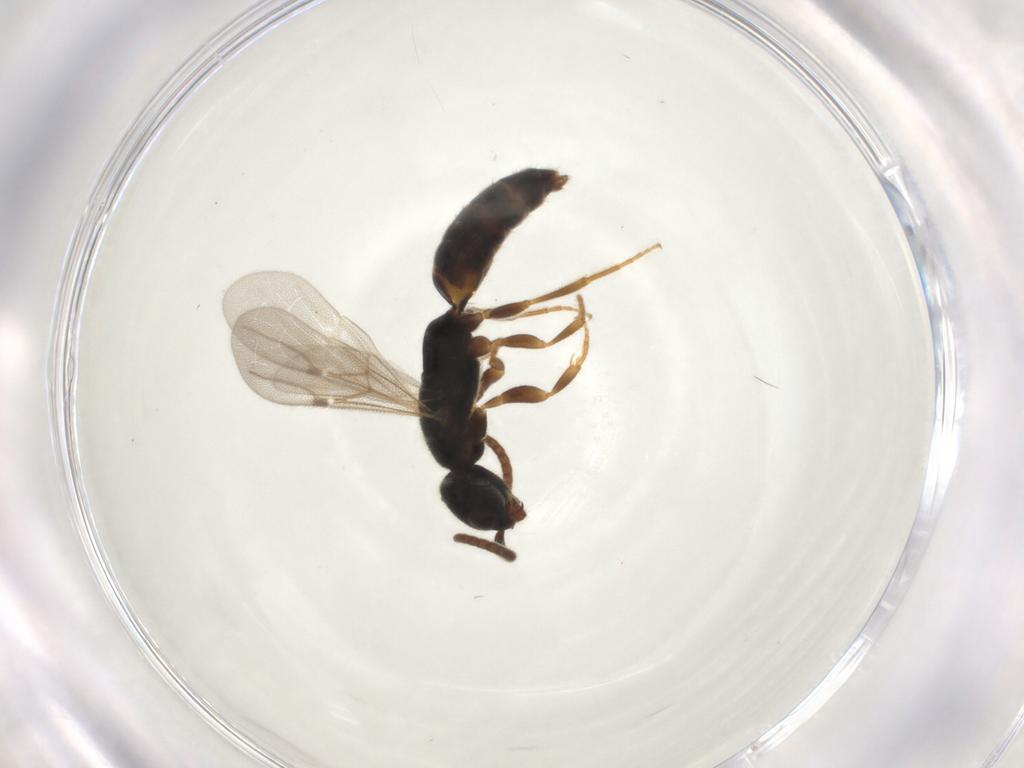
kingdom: Animalia
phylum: Arthropoda
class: Insecta
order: Hymenoptera
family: Bethylidae
